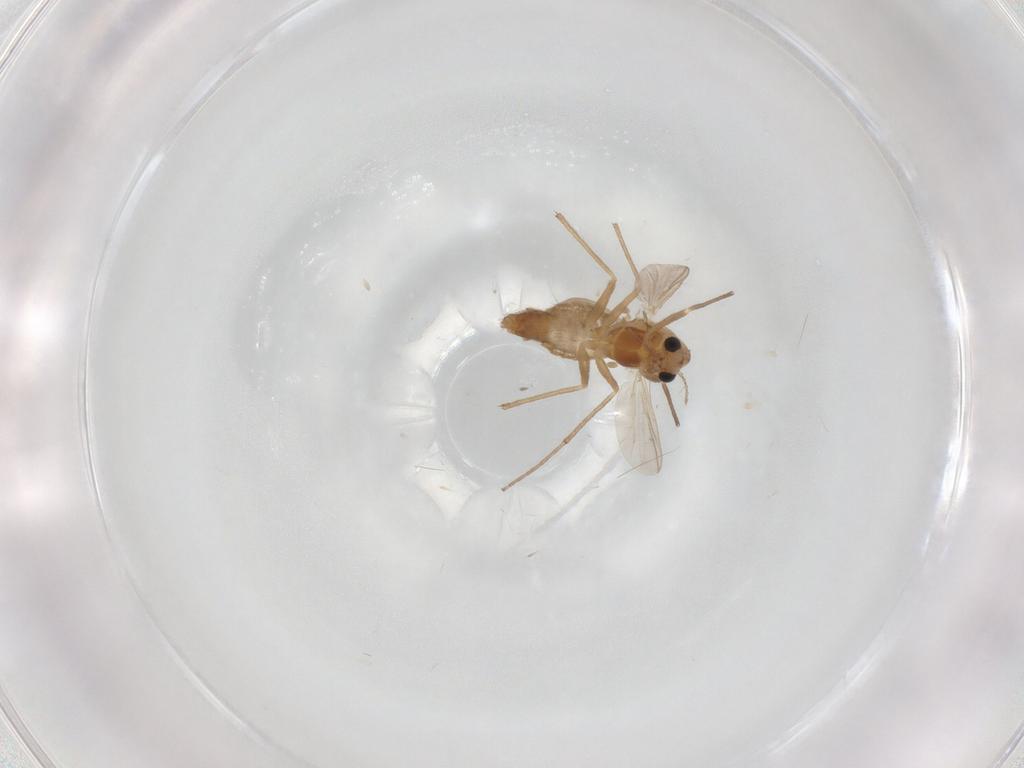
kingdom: Animalia
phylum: Arthropoda
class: Insecta
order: Diptera
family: Chironomidae
